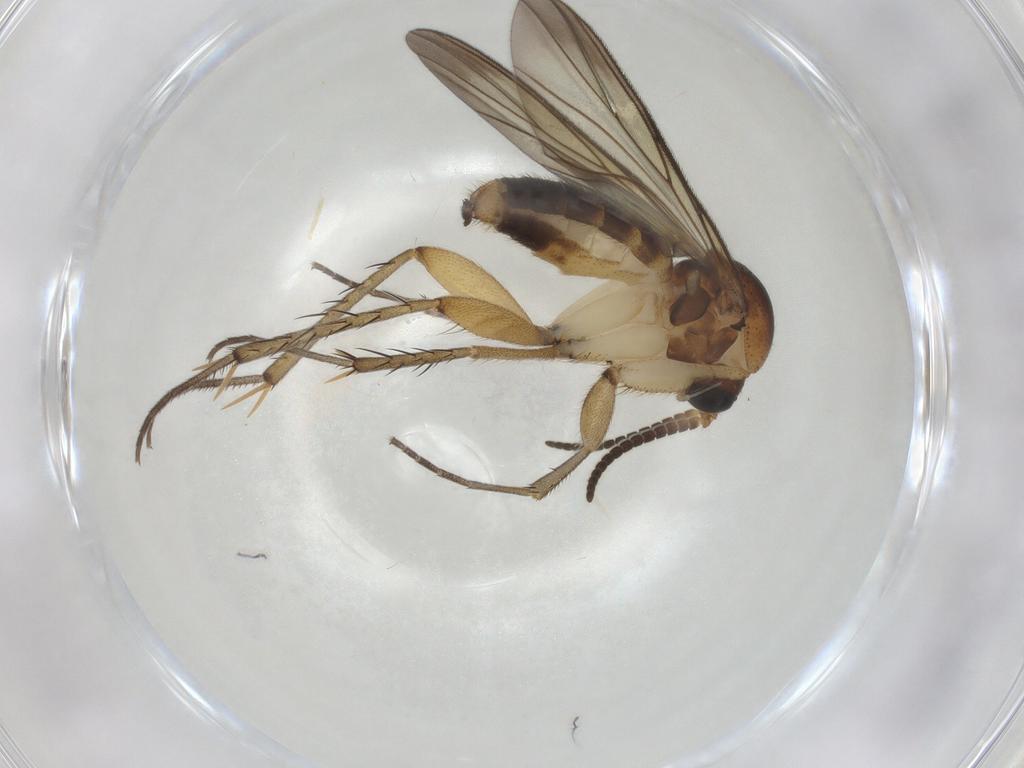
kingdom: Animalia
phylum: Arthropoda
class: Insecta
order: Diptera
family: Mycetophilidae
